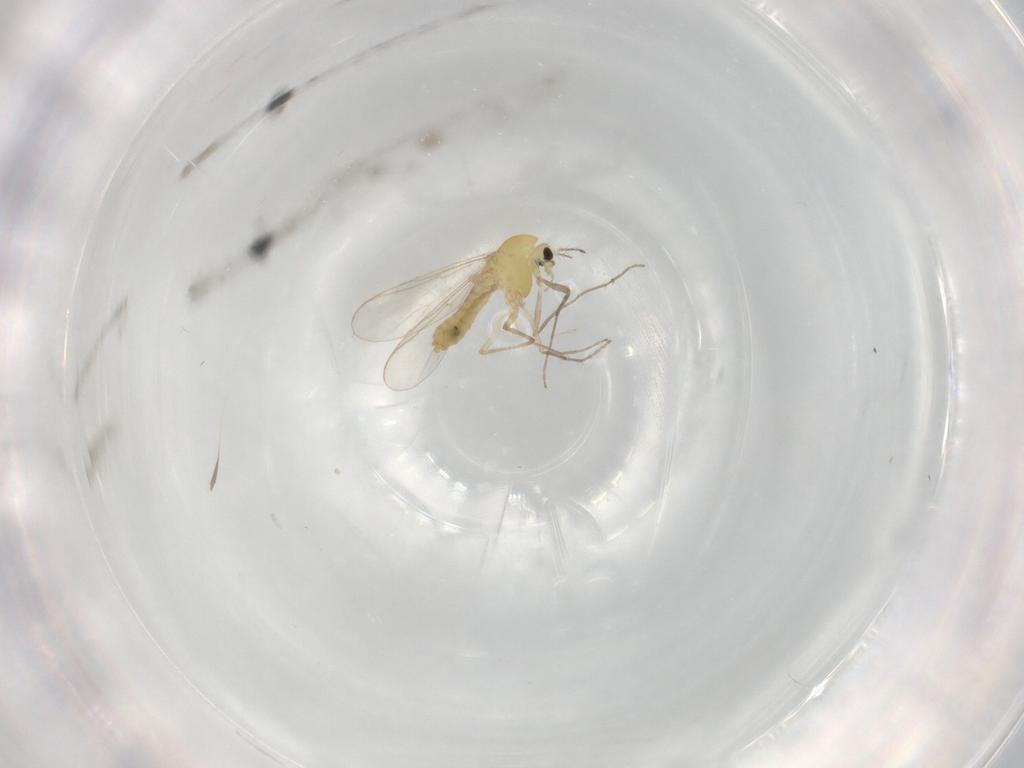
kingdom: Animalia
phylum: Arthropoda
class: Insecta
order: Diptera
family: Chironomidae
